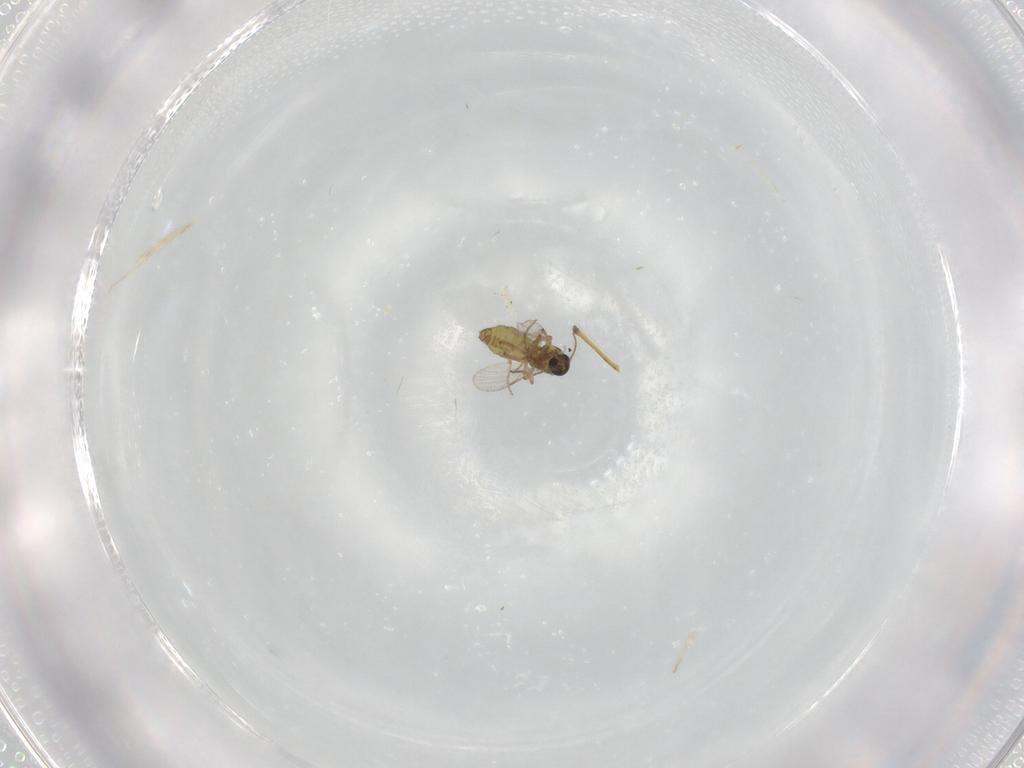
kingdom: Animalia
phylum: Arthropoda
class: Insecta
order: Diptera
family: Ceratopogonidae
